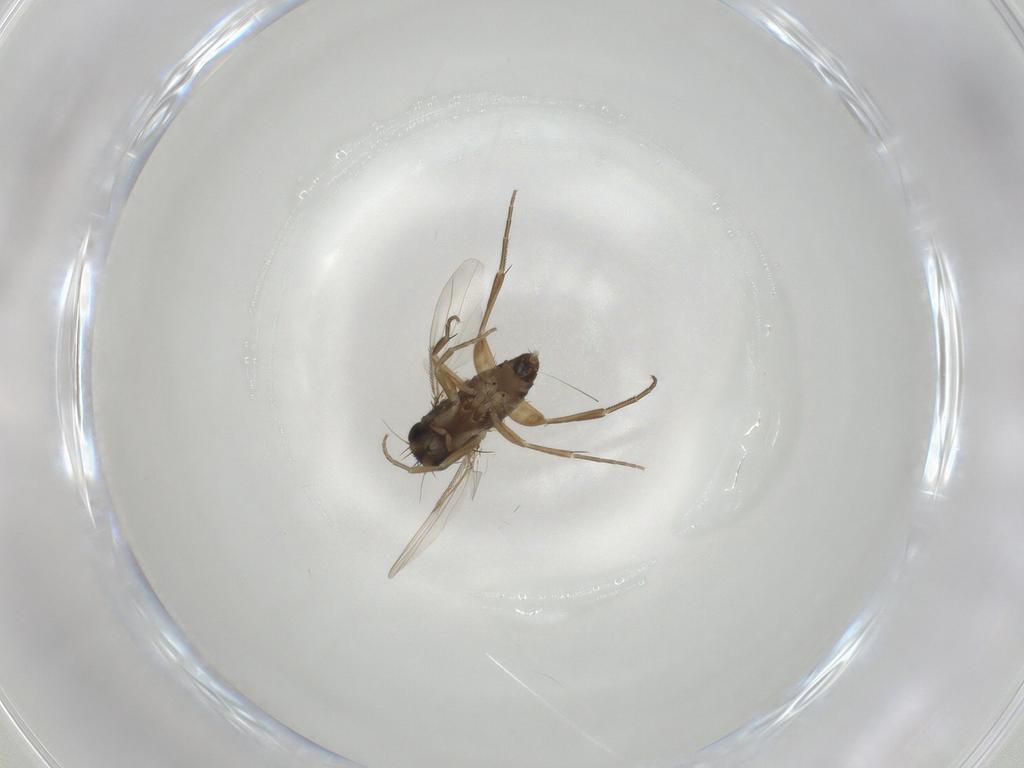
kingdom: Animalia
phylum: Arthropoda
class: Insecta
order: Diptera
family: Phoridae
